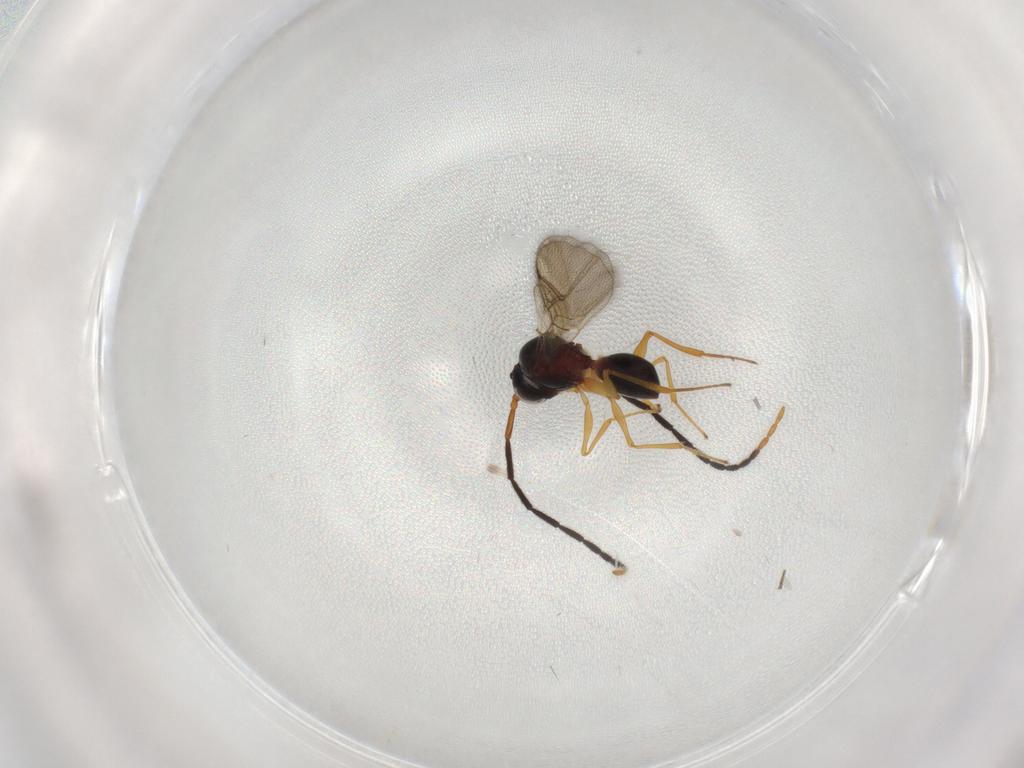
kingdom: Animalia
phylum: Arthropoda
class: Insecta
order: Hymenoptera
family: Figitidae
